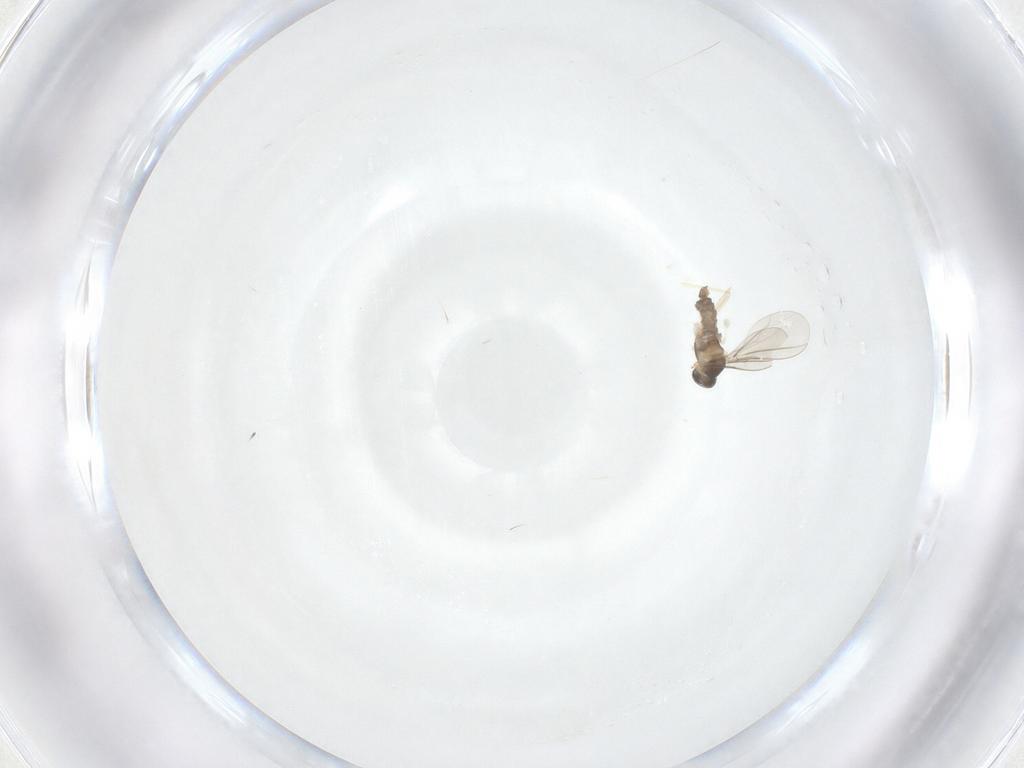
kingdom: Animalia
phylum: Arthropoda
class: Insecta
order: Diptera
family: Cecidomyiidae
